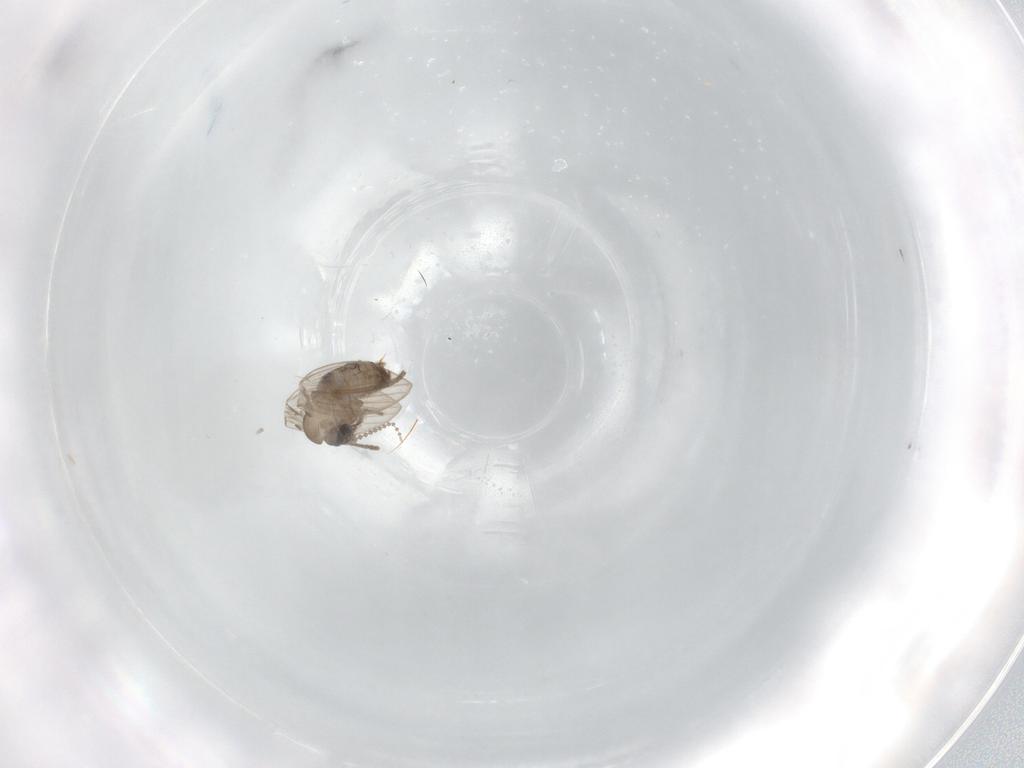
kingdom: Animalia
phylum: Arthropoda
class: Insecta
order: Diptera
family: Psychodidae
